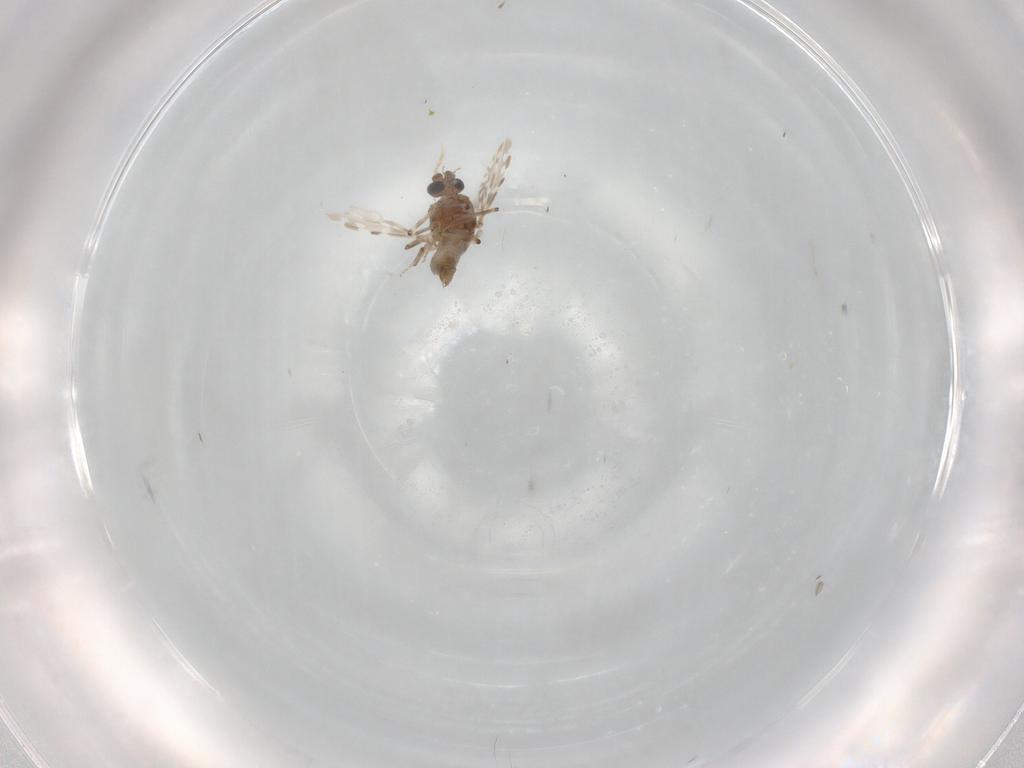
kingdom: Animalia
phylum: Arthropoda
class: Insecta
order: Diptera
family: Ceratopogonidae
